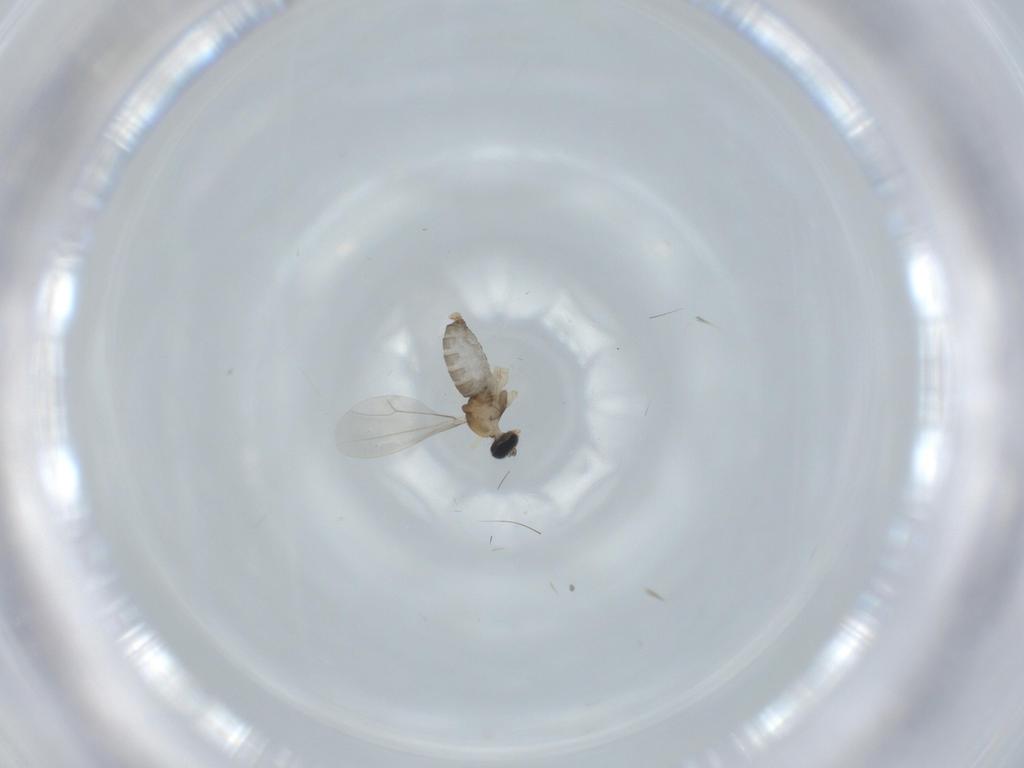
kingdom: Animalia
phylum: Arthropoda
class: Insecta
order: Diptera
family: Cecidomyiidae
